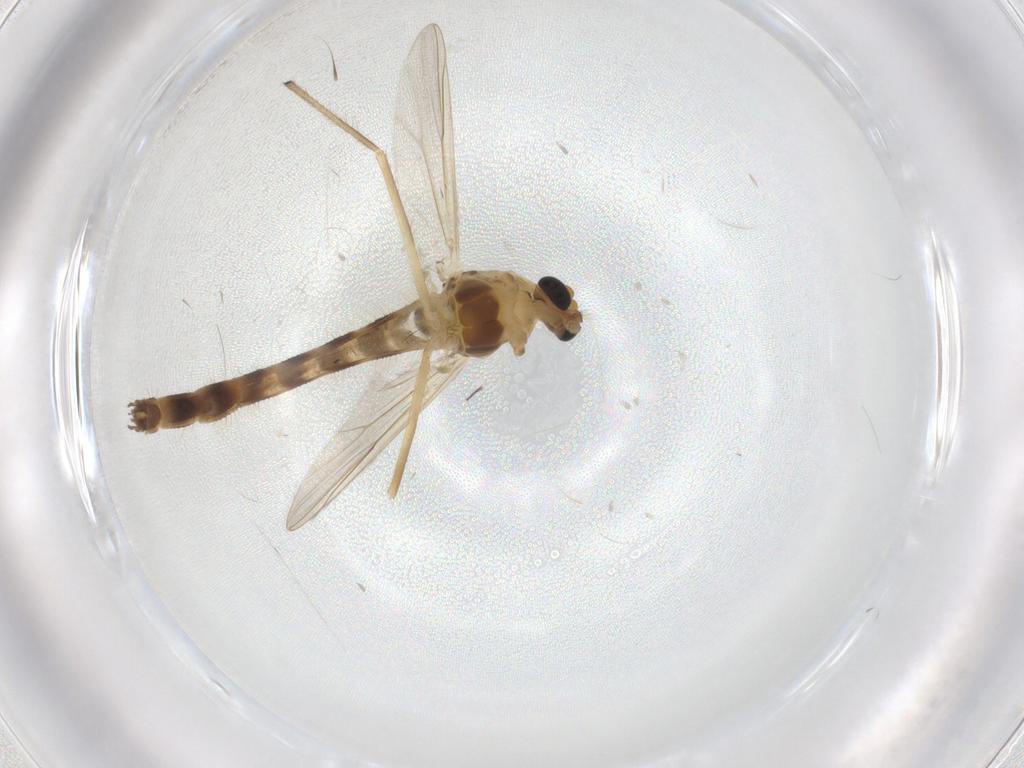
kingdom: Animalia
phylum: Arthropoda
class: Insecta
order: Diptera
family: Chironomidae
